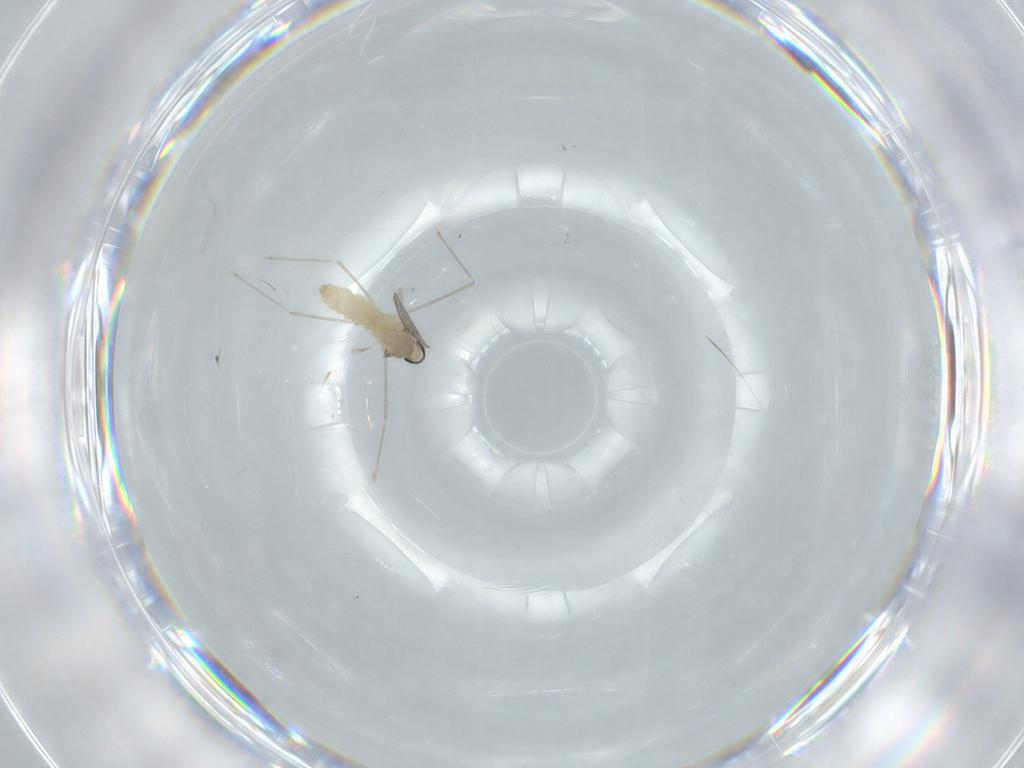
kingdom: Animalia
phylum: Arthropoda
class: Insecta
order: Diptera
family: Cecidomyiidae
